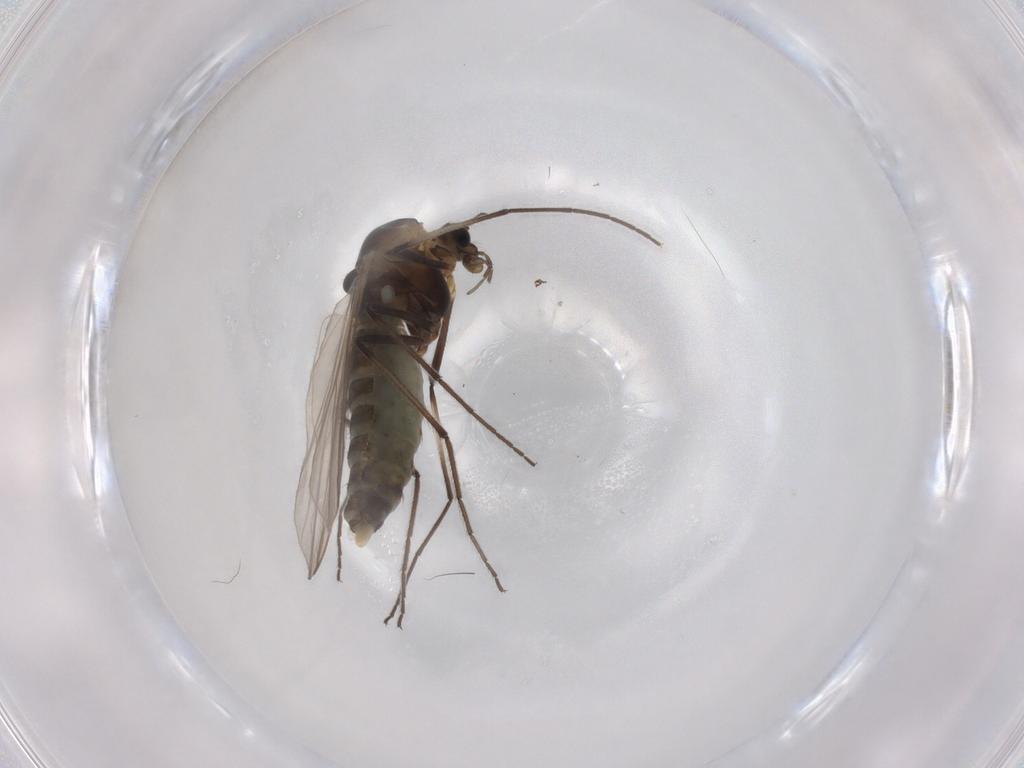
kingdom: Animalia
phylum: Arthropoda
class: Insecta
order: Diptera
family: Chironomidae
